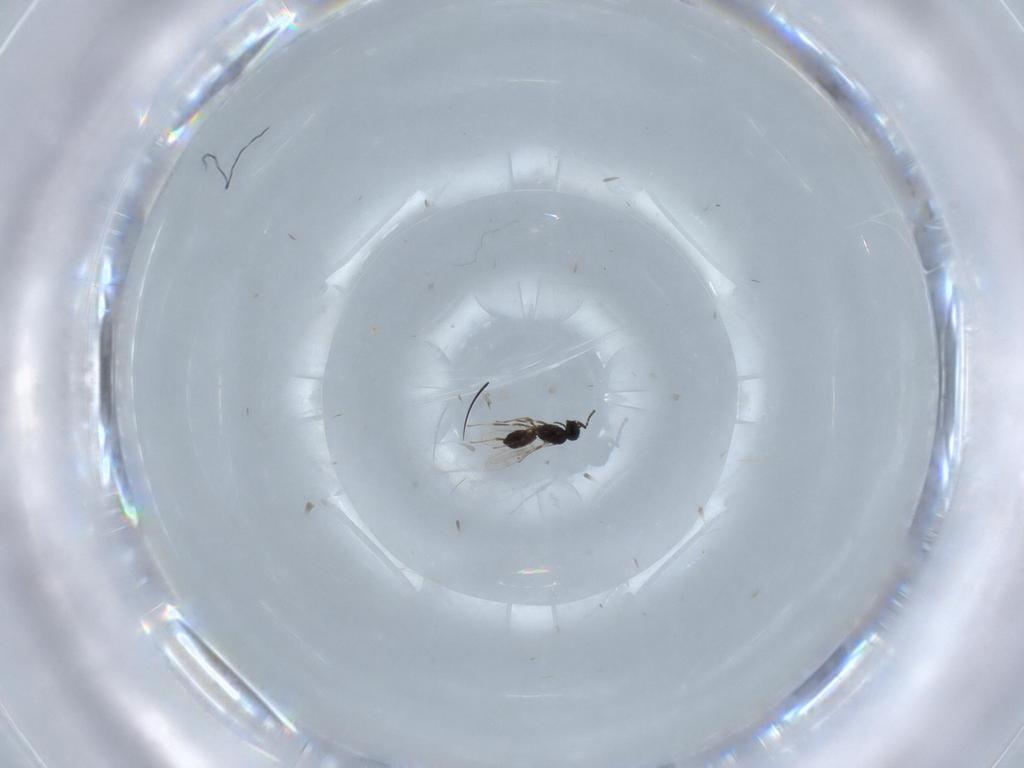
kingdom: Animalia
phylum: Arthropoda
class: Insecta
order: Hymenoptera
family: Scelionidae
